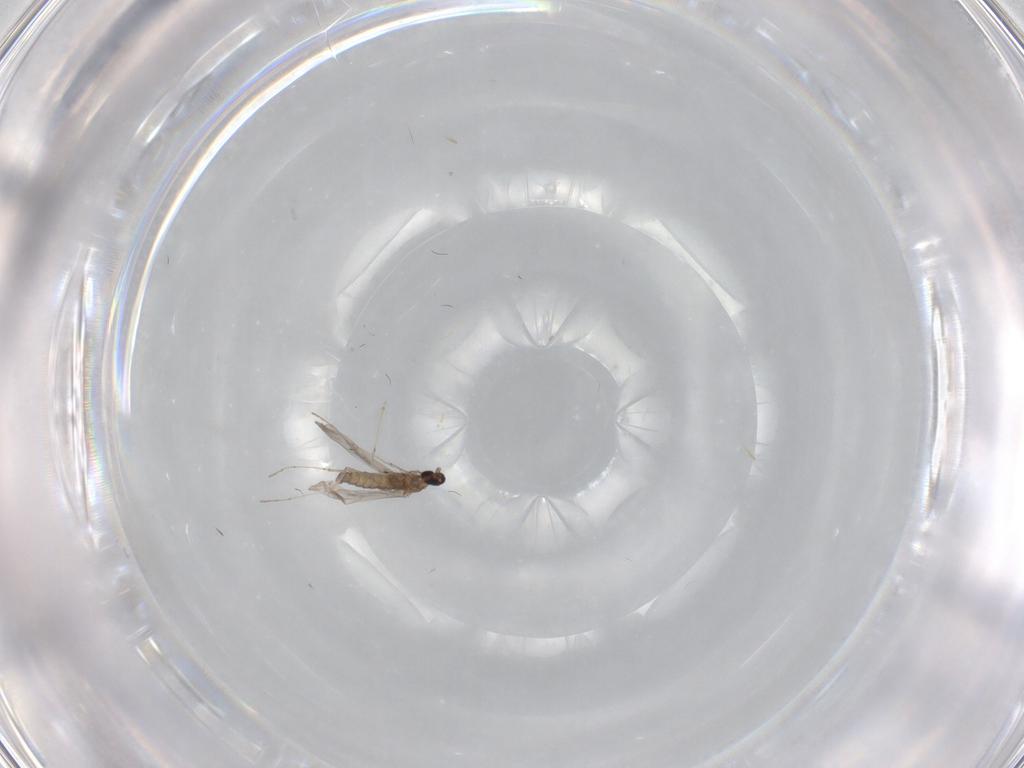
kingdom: Animalia
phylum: Arthropoda
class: Insecta
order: Diptera
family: Cecidomyiidae
